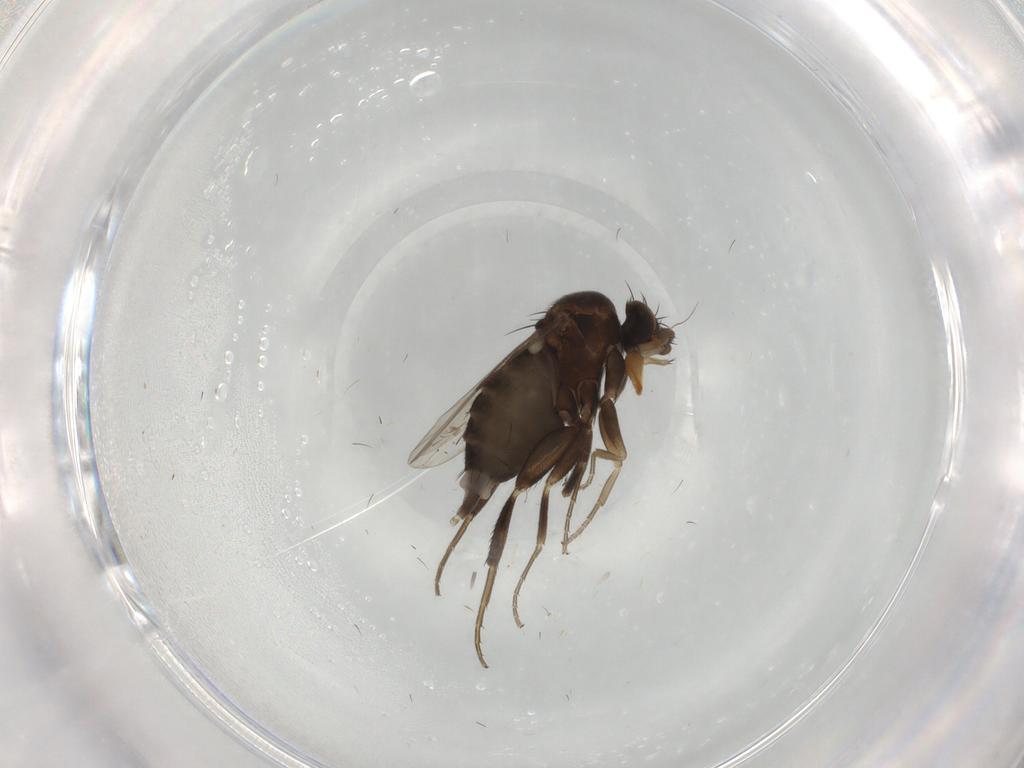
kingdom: Animalia
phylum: Arthropoda
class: Insecta
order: Diptera
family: Phoridae
